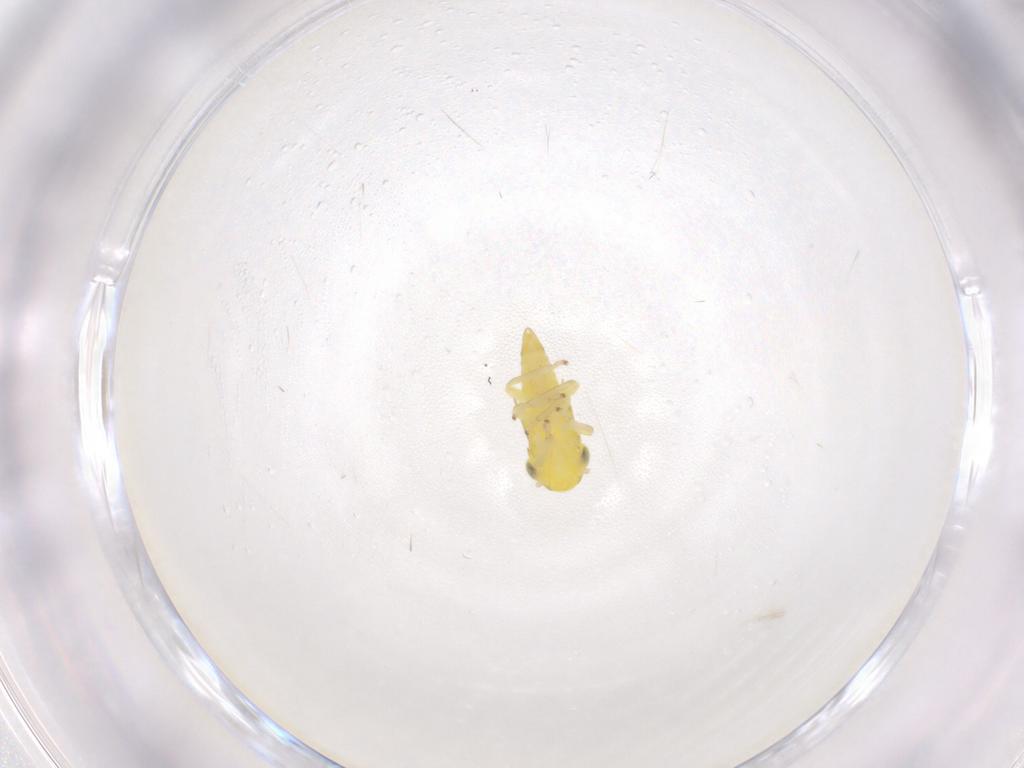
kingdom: Animalia
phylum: Arthropoda
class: Insecta
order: Hemiptera
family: Cicadellidae
